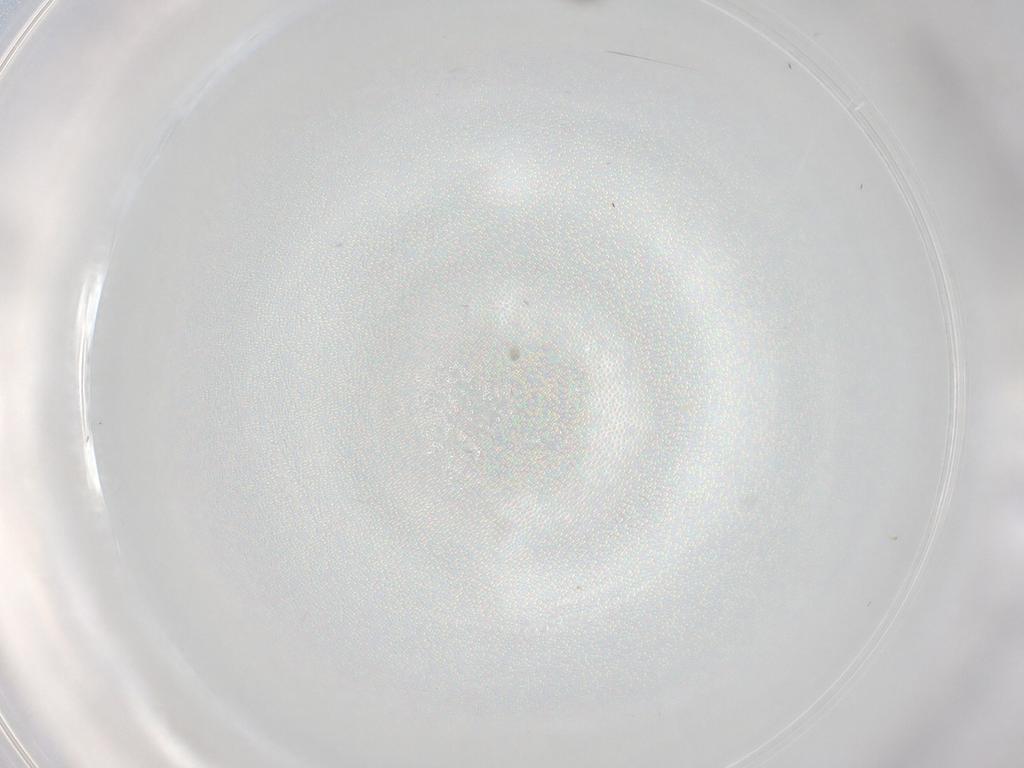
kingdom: Animalia
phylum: Arthropoda
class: Insecta
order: Diptera
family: Psychodidae
